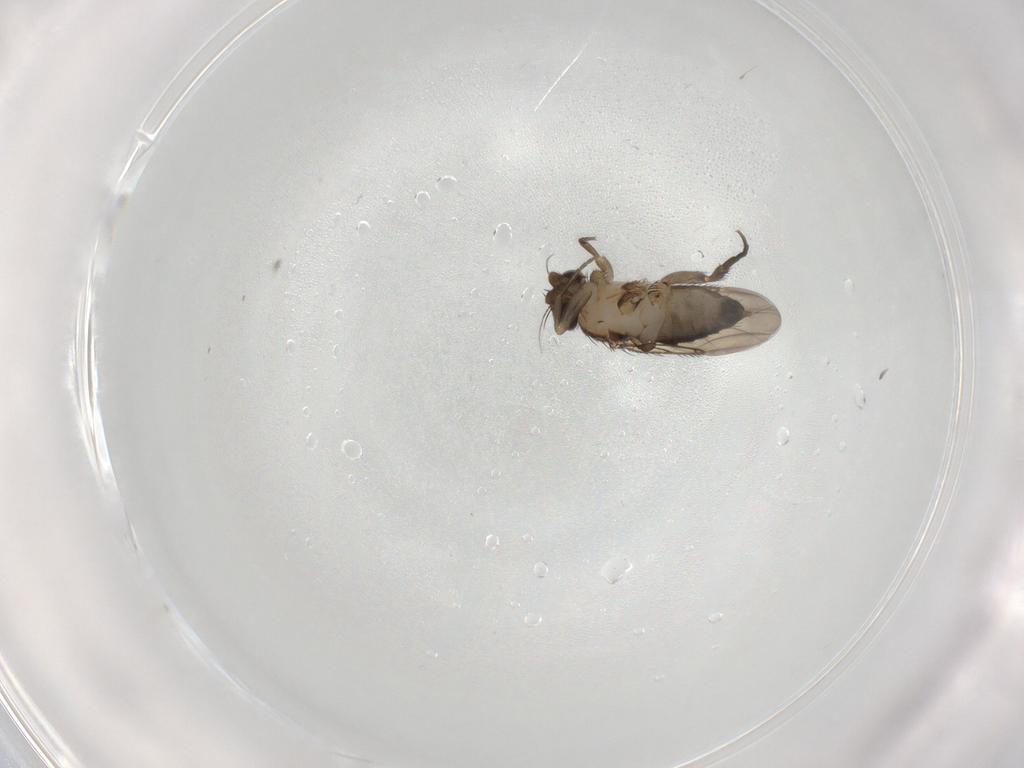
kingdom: Animalia
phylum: Arthropoda
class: Insecta
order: Diptera
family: Phoridae
